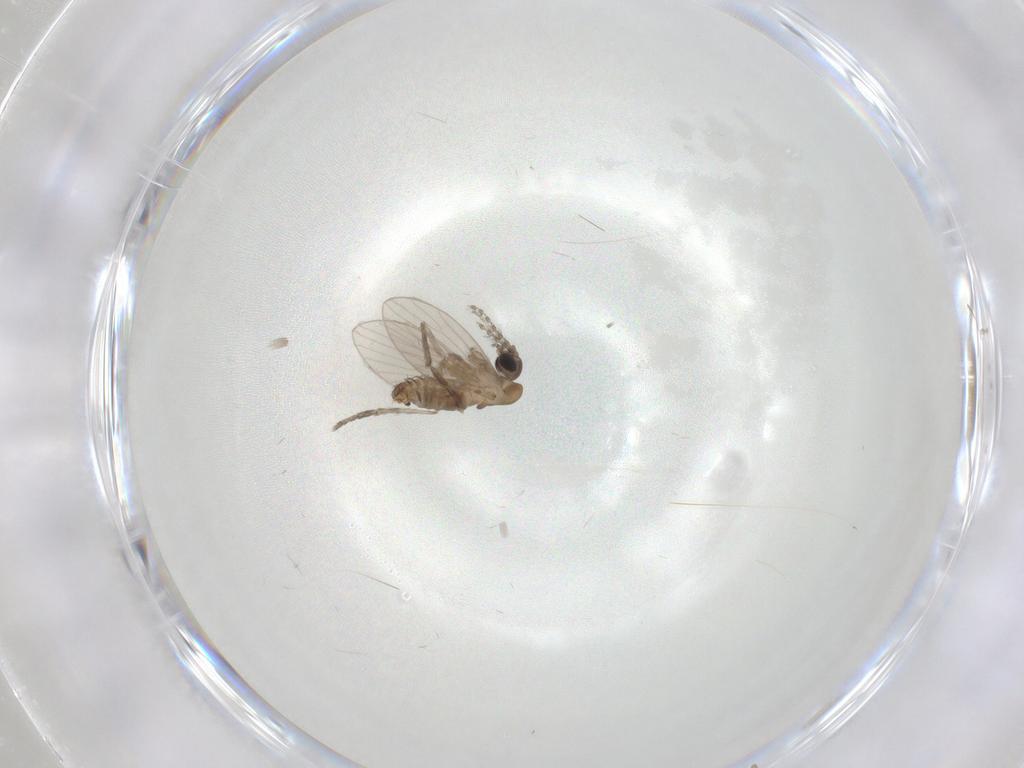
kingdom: Animalia
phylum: Arthropoda
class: Insecta
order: Diptera
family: Psychodidae
